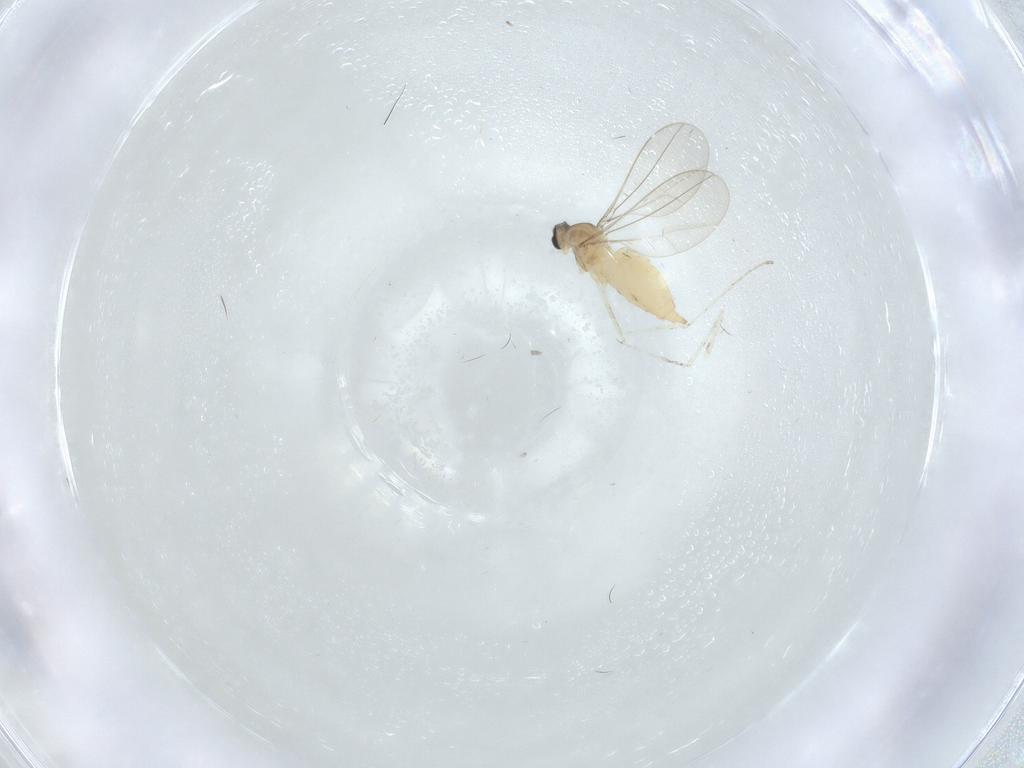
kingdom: Animalia
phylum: Arthropoda
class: Insecta
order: Diptera
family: Cecidomyiidae
